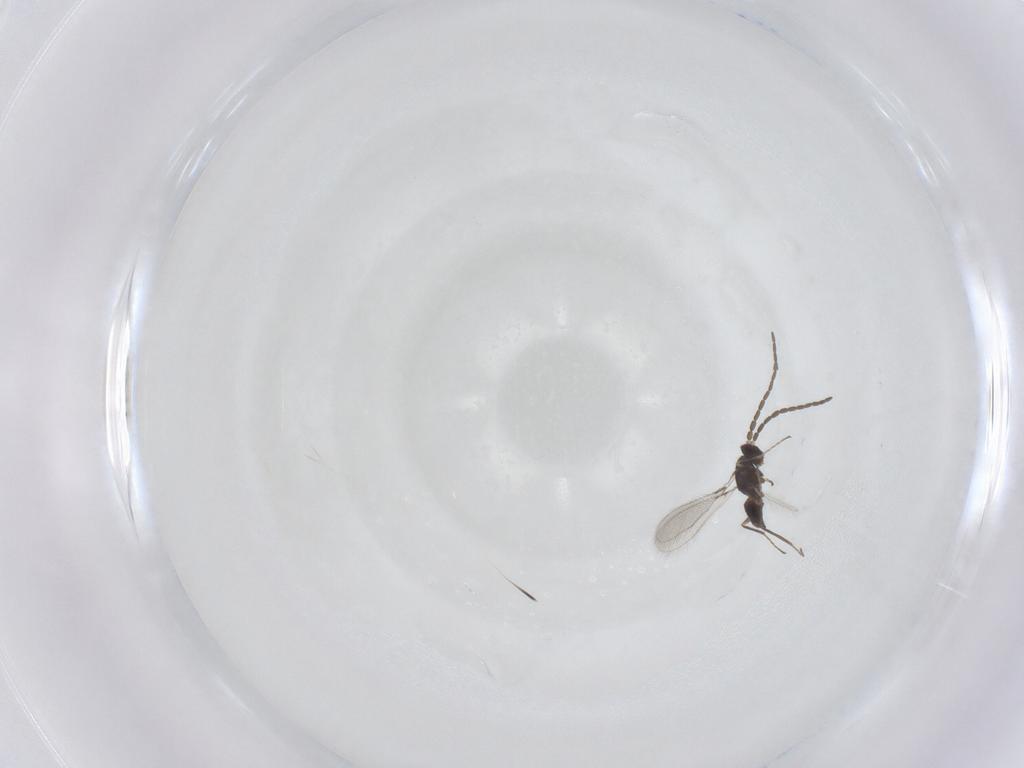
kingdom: Animalia
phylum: Arthropoda
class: Insecta
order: Hymenoptera
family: Mymaridae
